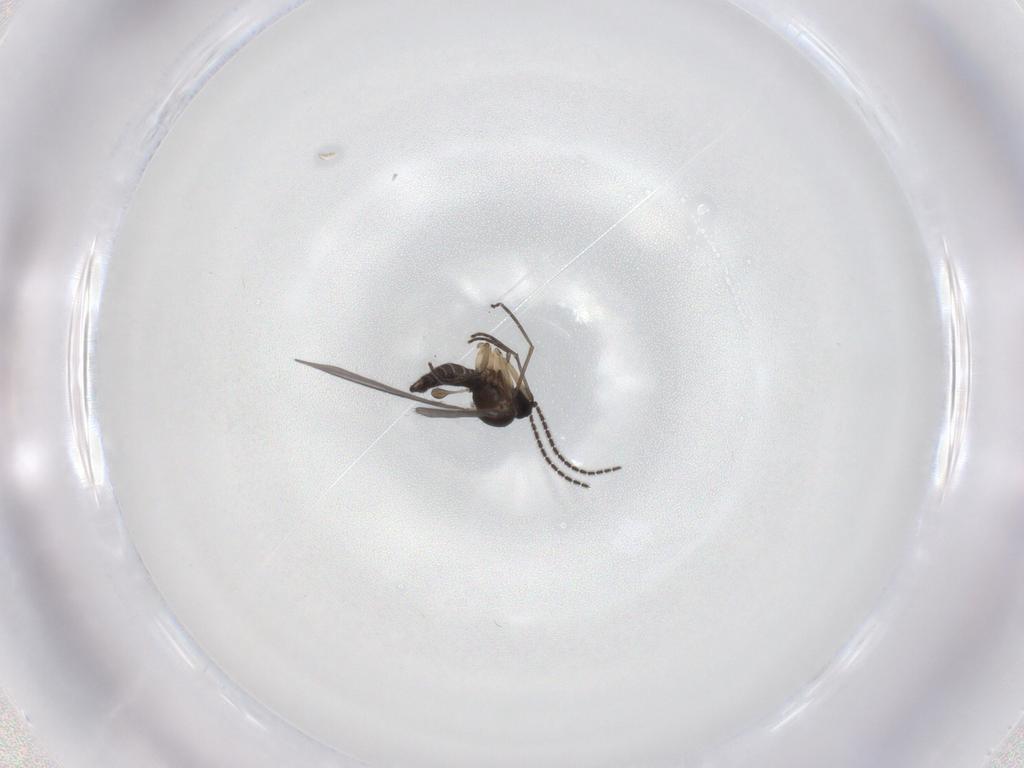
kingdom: Animalia
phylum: Arthropoda
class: Insecta
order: Diptera
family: Sciaridae
